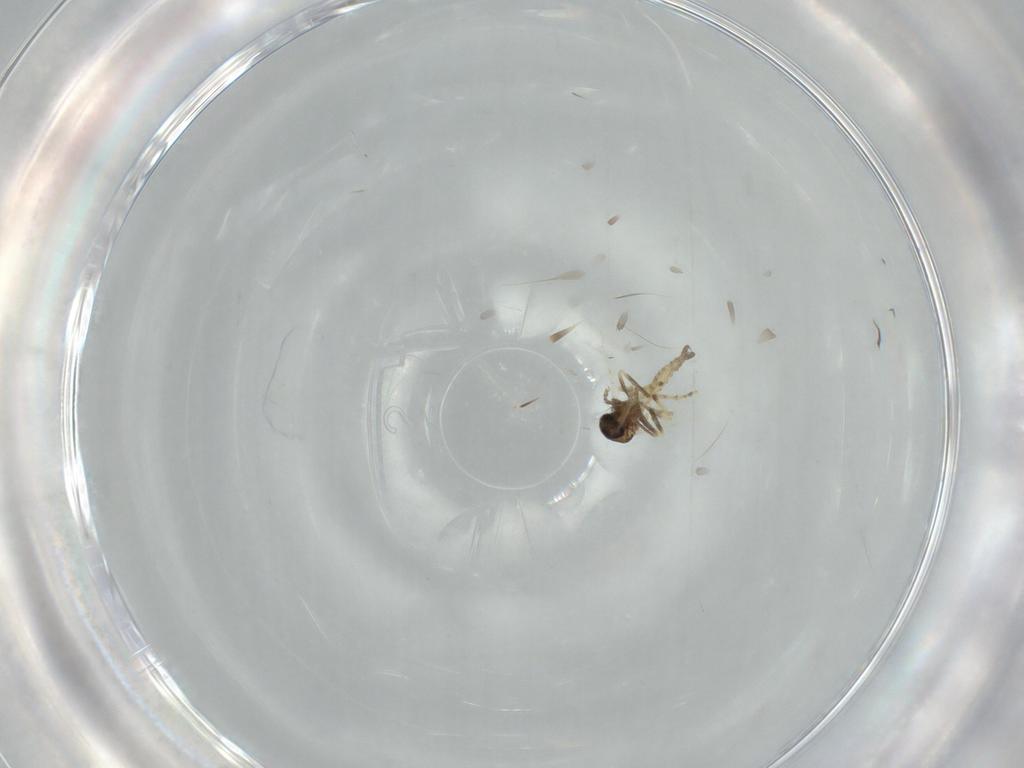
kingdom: Animalia
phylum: Arthropoda
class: Insecta
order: Diptera
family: Ceratopogonidae
